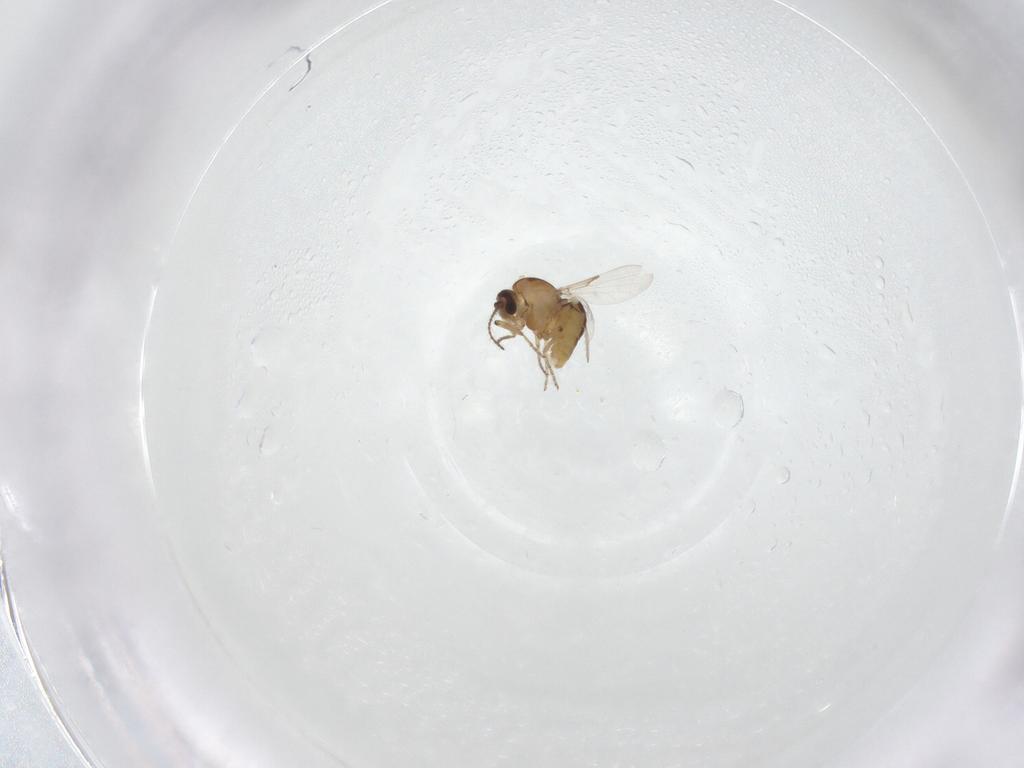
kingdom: Animalia
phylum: Arthropoda
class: Insecta
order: Diptera
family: Ceratopogonidae
